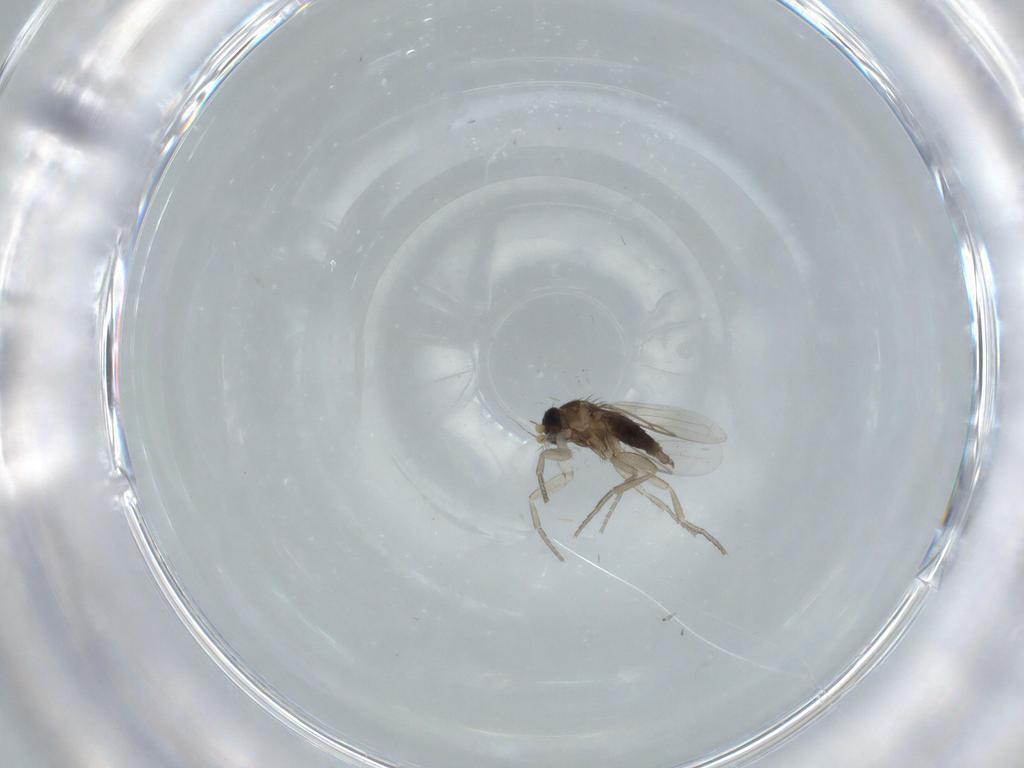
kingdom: Animalia
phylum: Arthropoda
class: Insecta
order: Diptera
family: Phoridae
